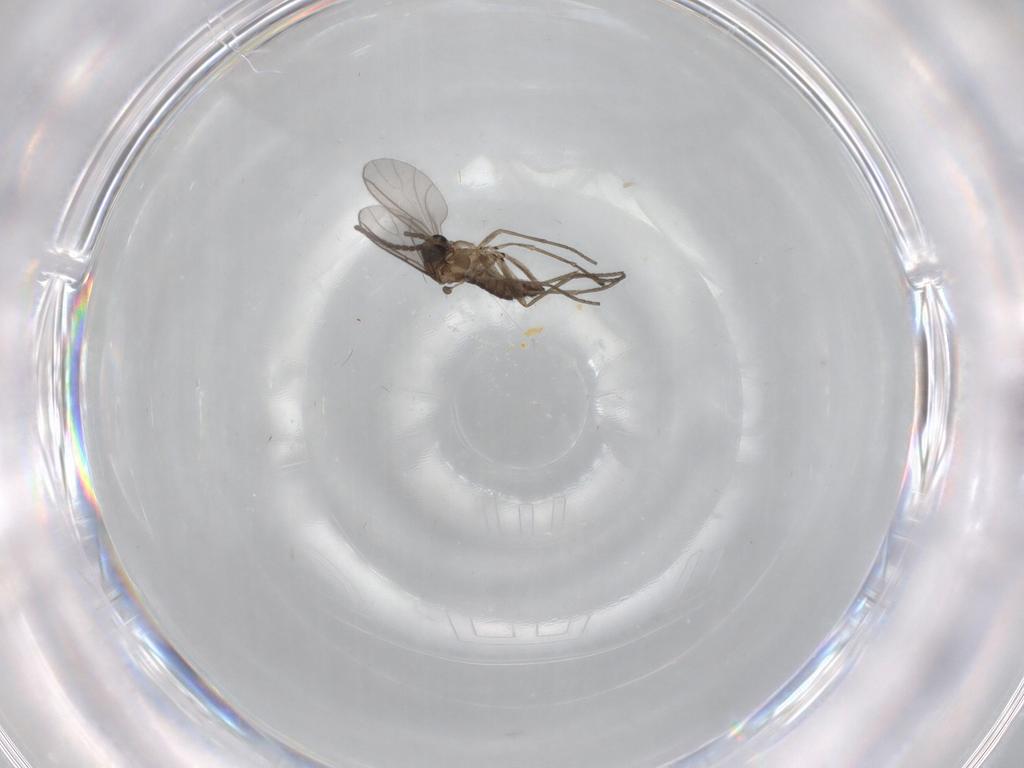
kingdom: Animalia
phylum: Arthropoda
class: Insecta
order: Diptera
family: Sciaridae
